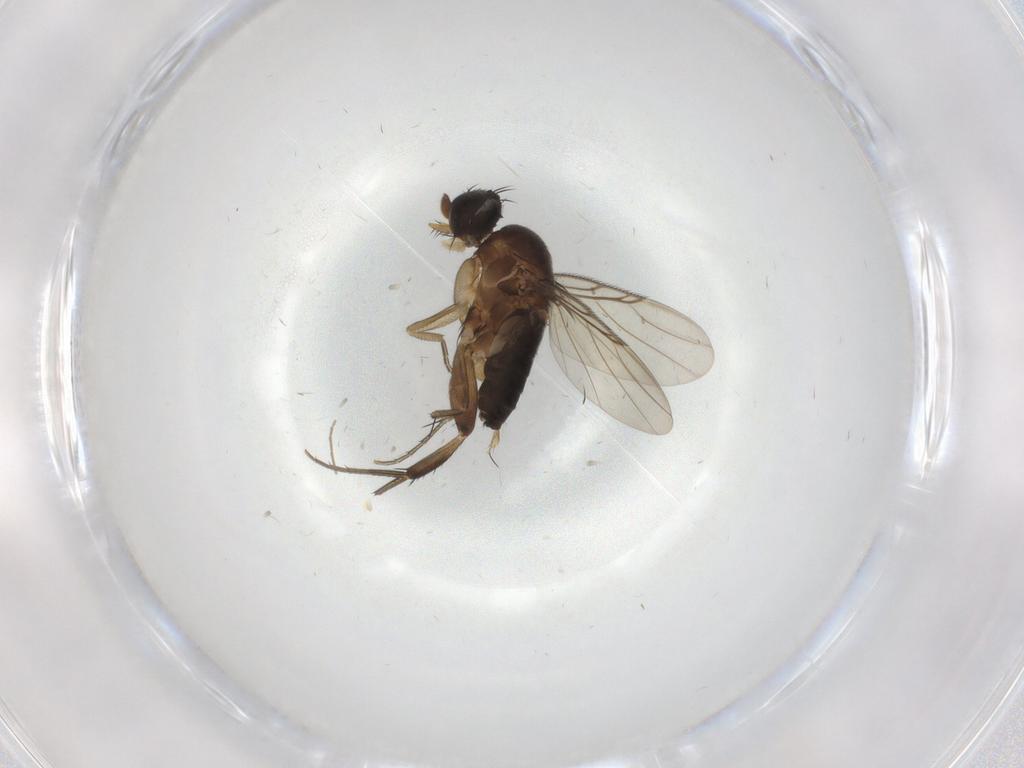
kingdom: Animalia
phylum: Arthropoda
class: Insecta
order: Diptera
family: Phoridae
